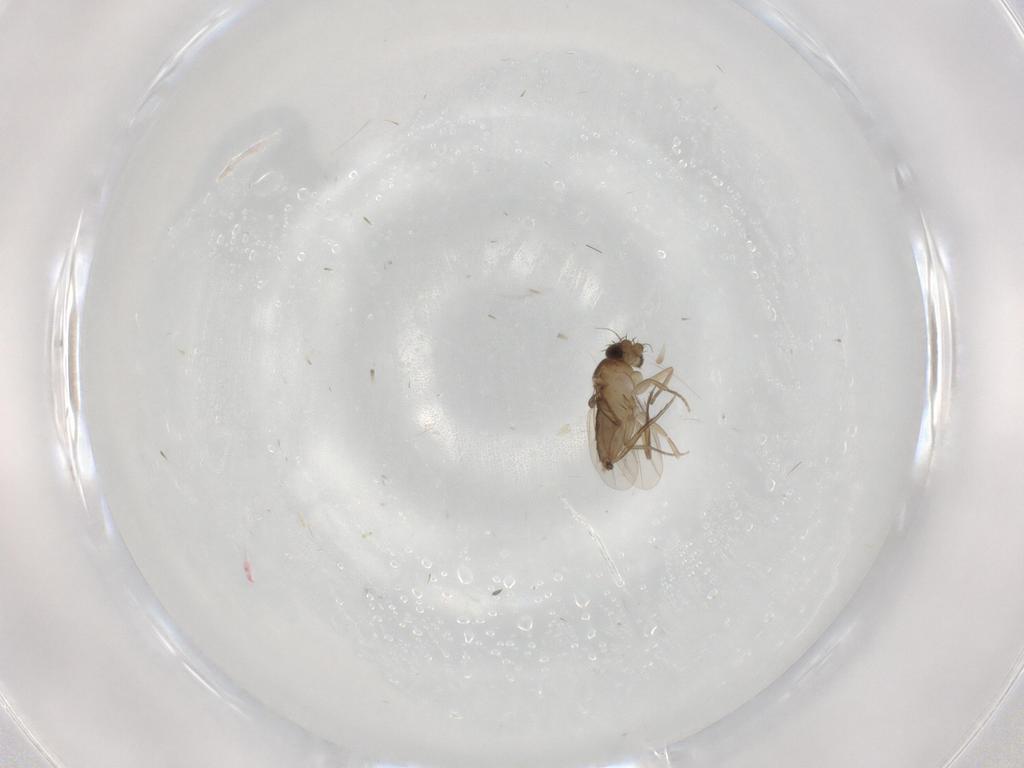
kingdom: Animalia
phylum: Arthropoda
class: Insecta
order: Diptera
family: Phoridae
